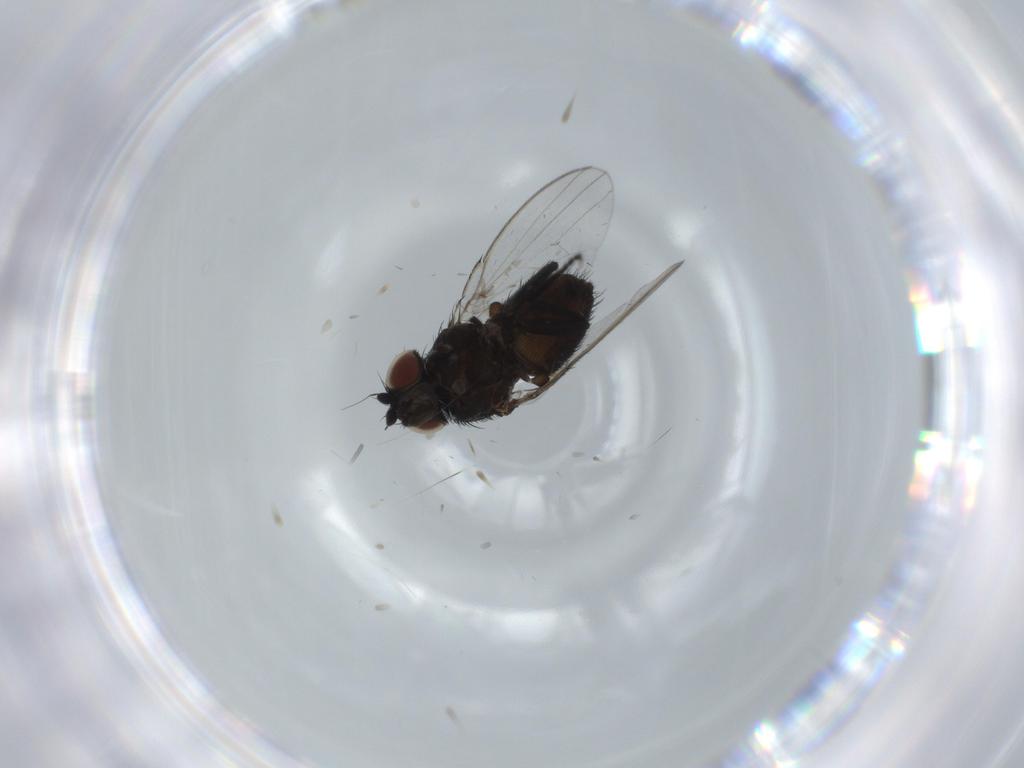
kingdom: Animalia
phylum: Arthropoda
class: Insecta
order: Diptera
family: Milichiidae
